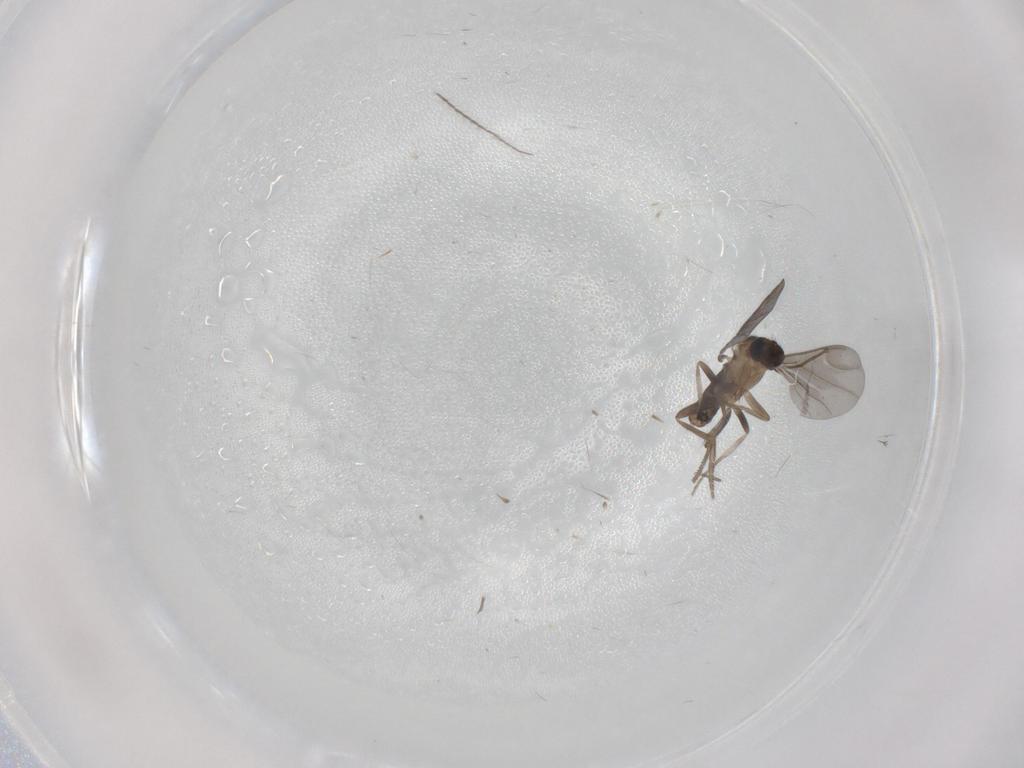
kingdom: Animalia
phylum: Arthropoda
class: Insecta
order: Diptera
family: Phoridae
